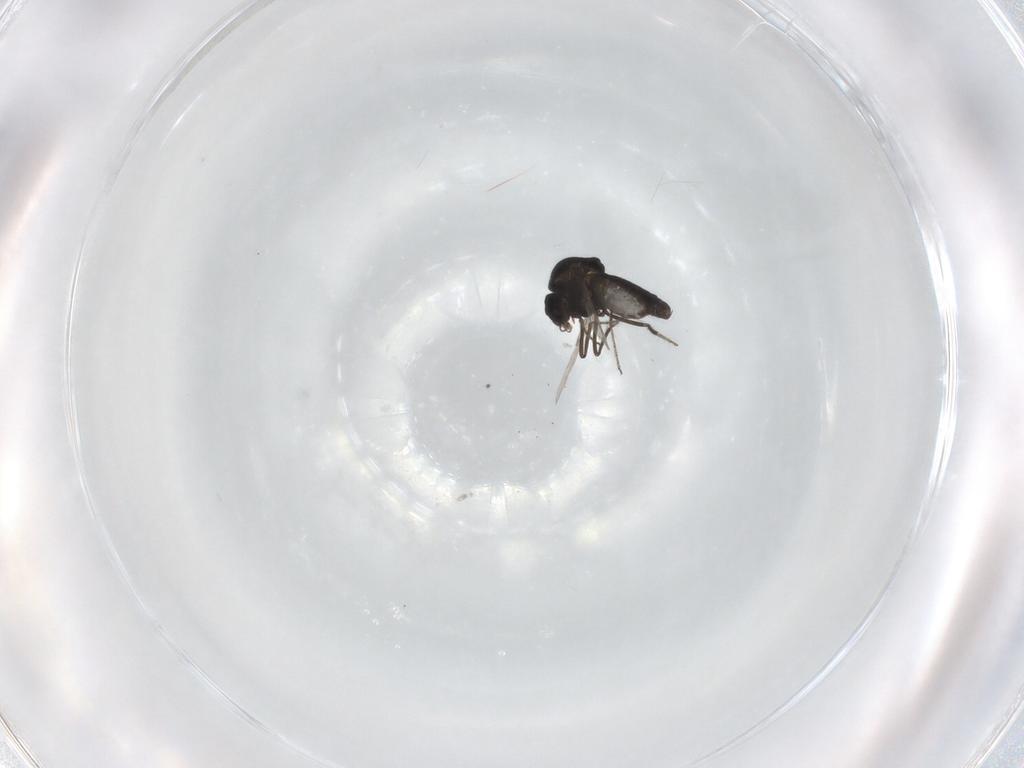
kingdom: Animalia
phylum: Arthropoda
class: Insecta
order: Diptera
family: Ceratopogonidae
